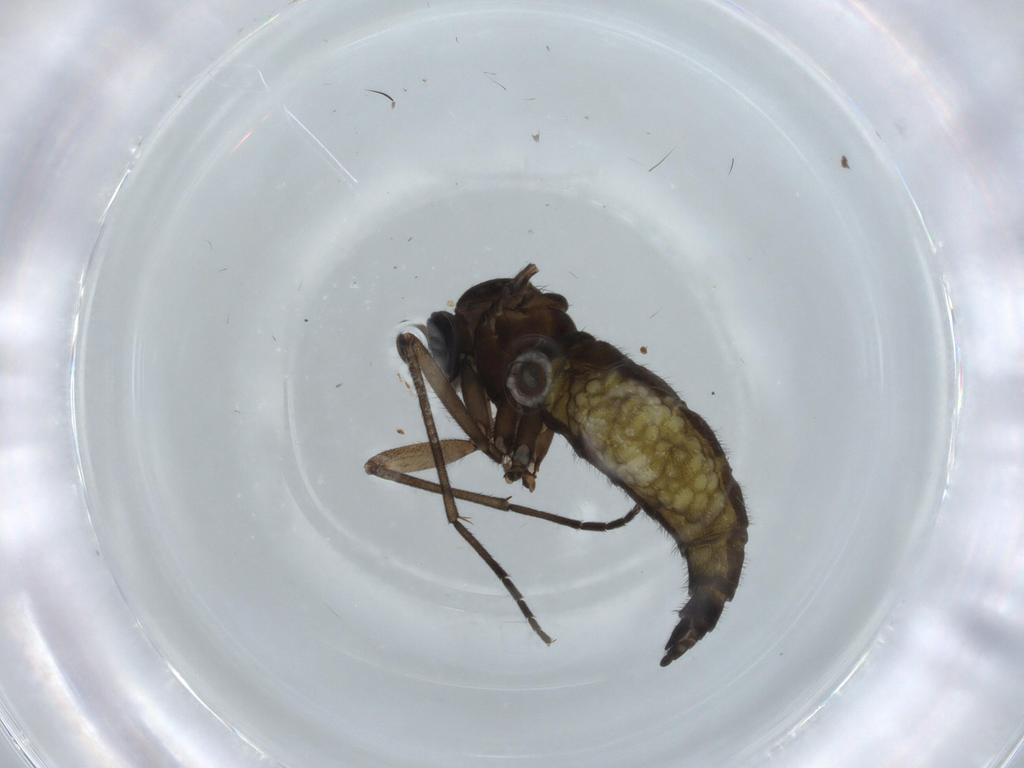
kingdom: Animalia
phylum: Arthropoda
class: Insecta
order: Diptera
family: Sciaridae
